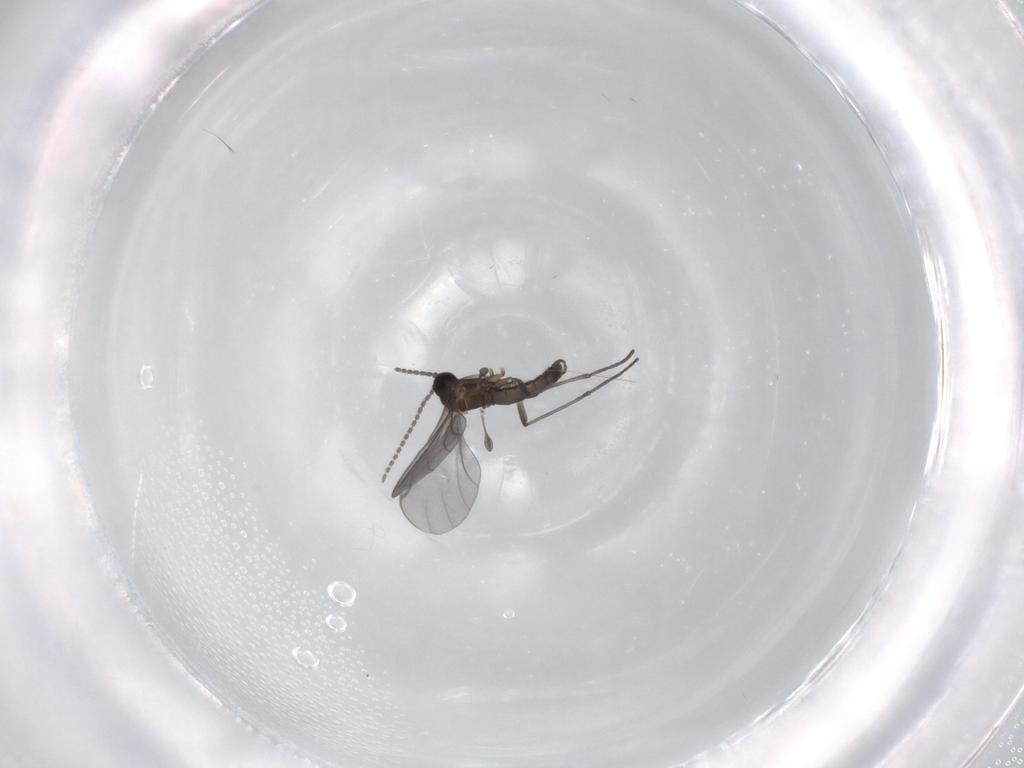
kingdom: Animalia
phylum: Arthropoda
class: Insecta
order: Diptera
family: Sciaridae
